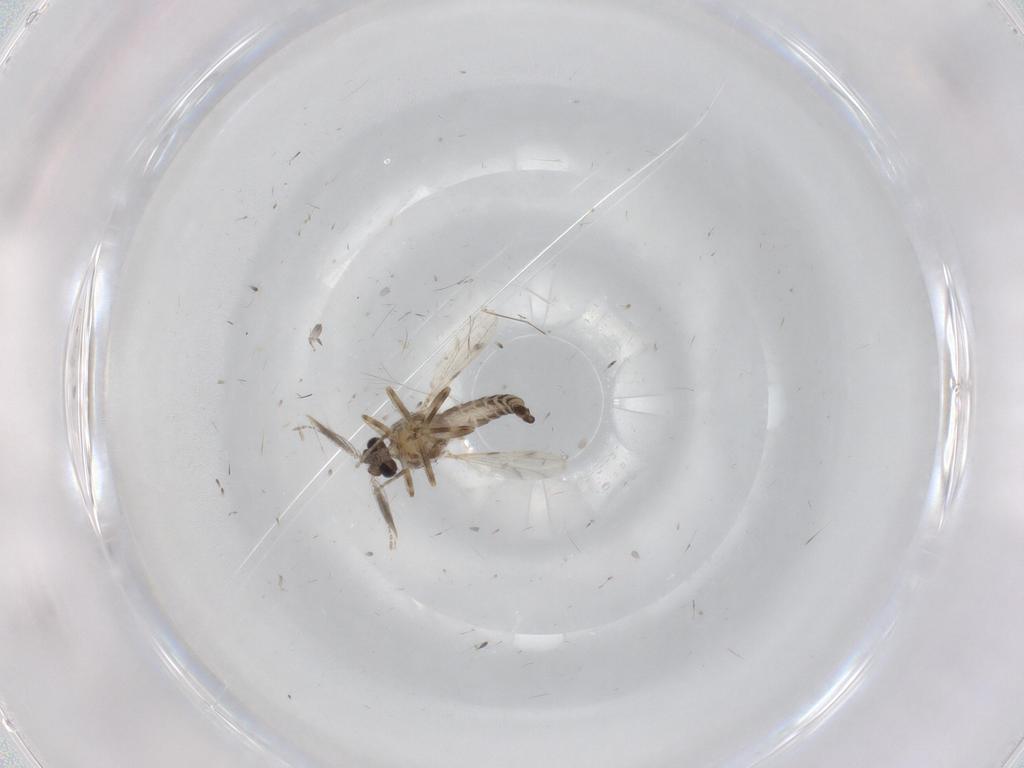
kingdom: Animalia
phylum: Arthropoda
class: Insecta
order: Diptera
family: Ceratopogonidae
